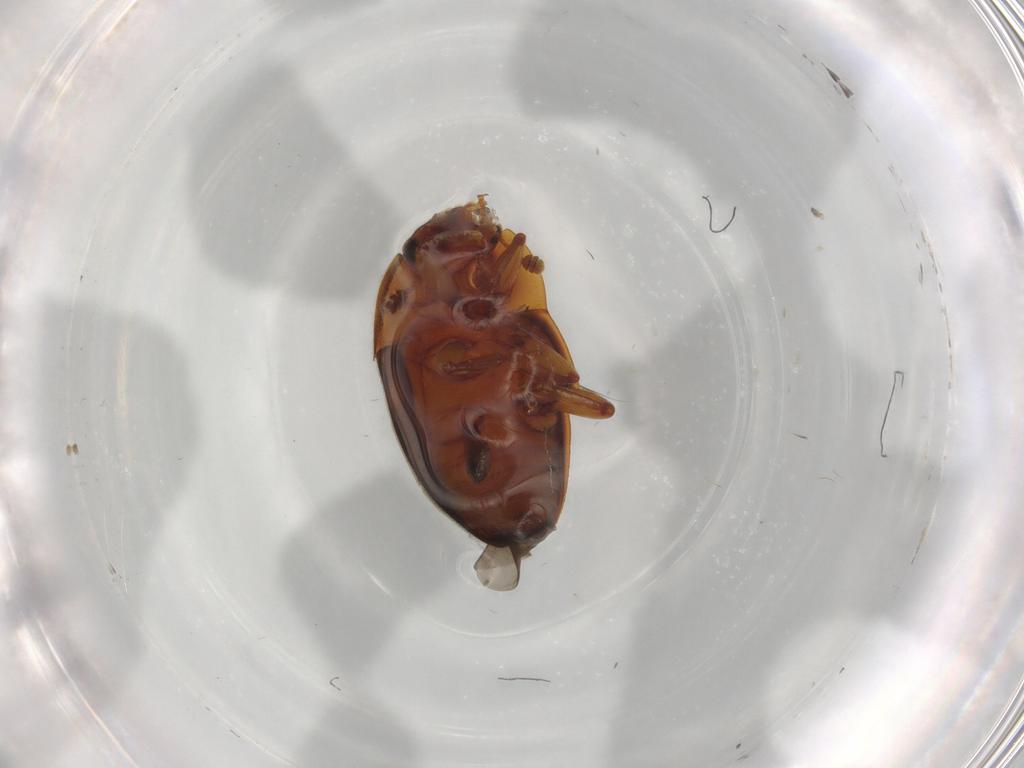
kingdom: Animalia
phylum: Arthropoda
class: Insecta
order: Coleoptera
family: Nitidulidae
